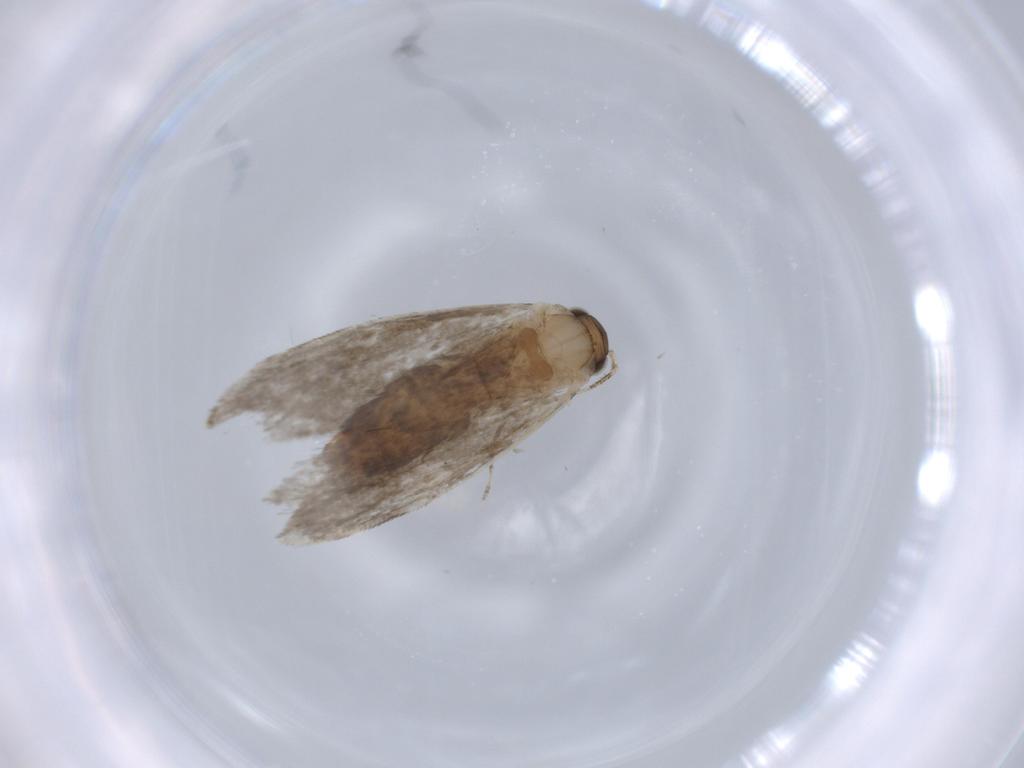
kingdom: Animalia
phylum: Arthropoda
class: Insecta
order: Lepidoptera
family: Tineidae
